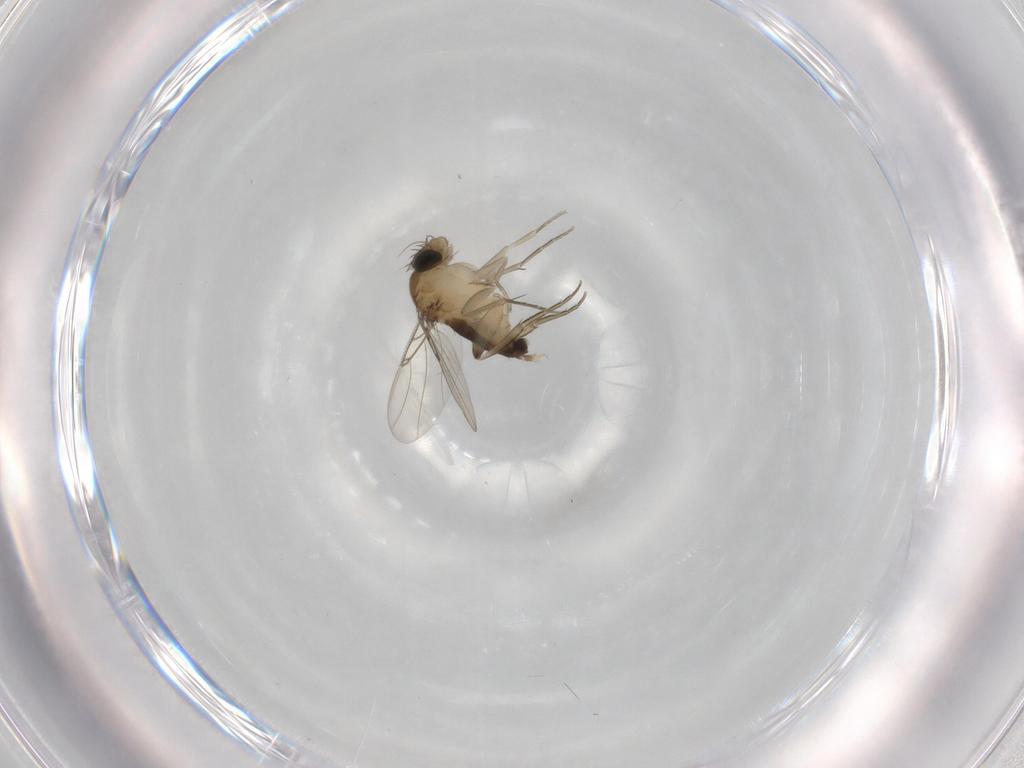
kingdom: Animalia
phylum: Arthropoda
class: Insecta
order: Diptera
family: Phoridae
